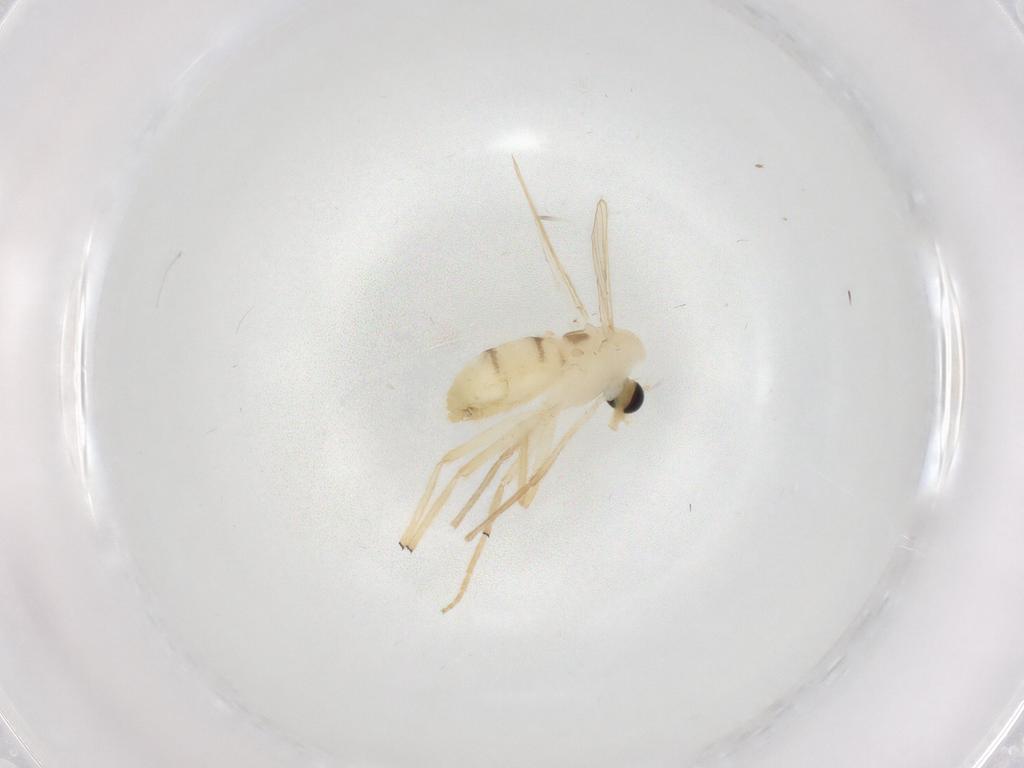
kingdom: Animalia
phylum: Arthropoda
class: Insecta
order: Diptera
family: Chironomidae
